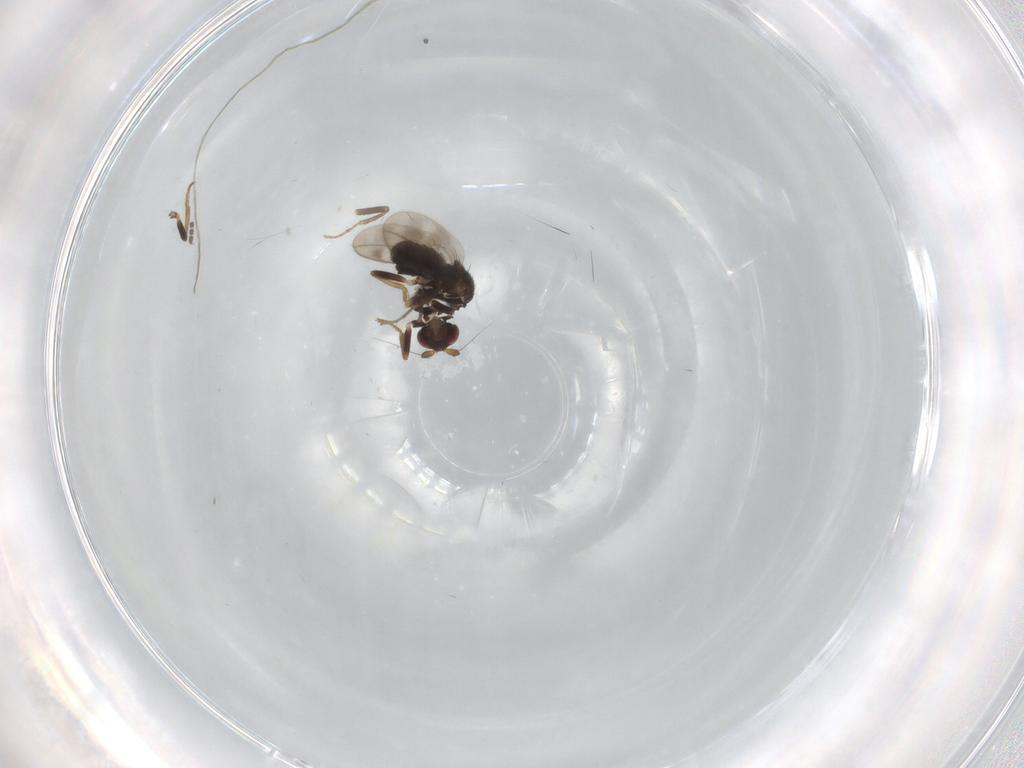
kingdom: Animalia
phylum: Arthropoda
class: Insecta
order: Diptera
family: Sphaeroceridae
